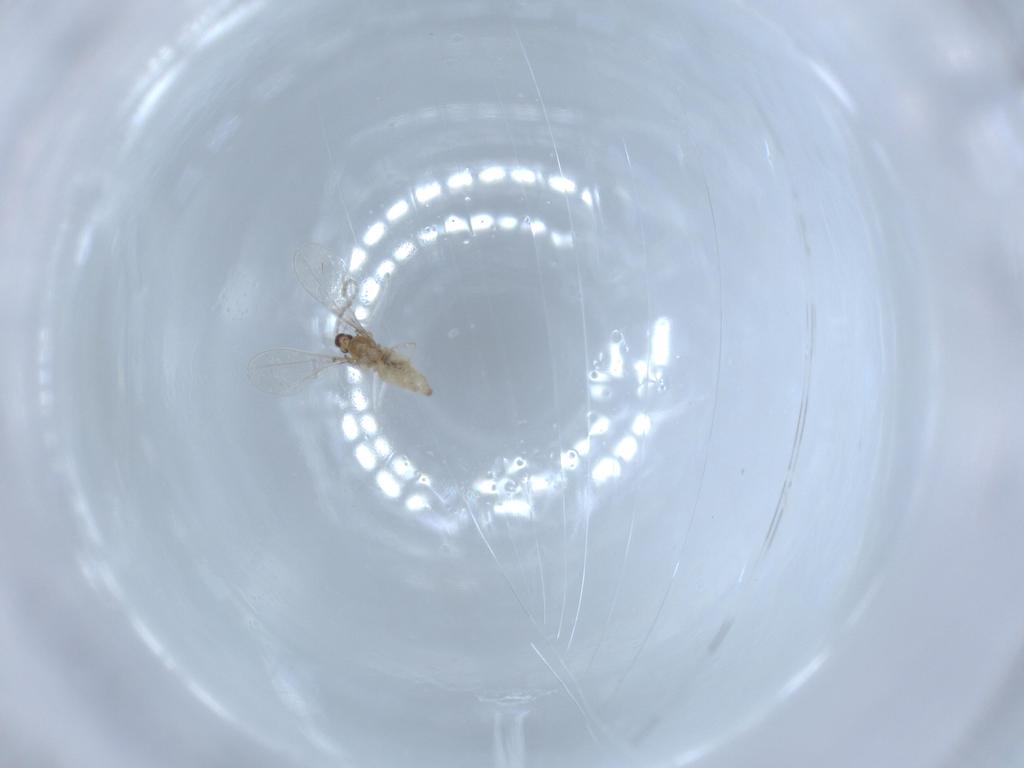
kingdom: Animalia
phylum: Arthropoda
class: Insecta
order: Diptera
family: Cecidomyiidae
